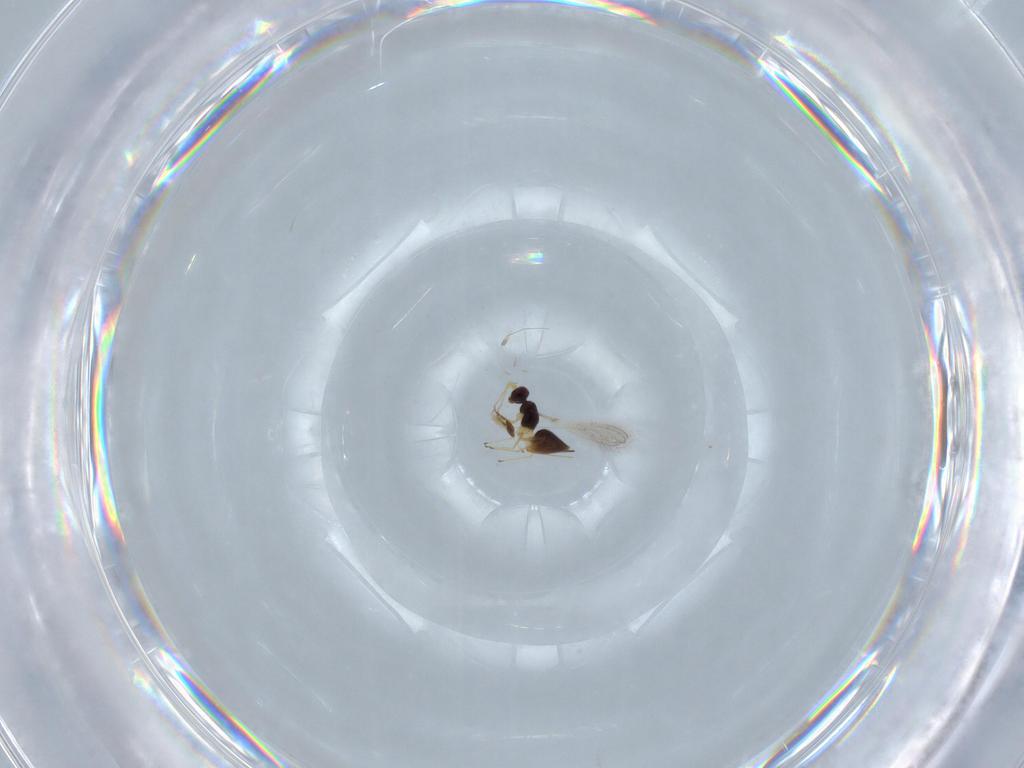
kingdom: Animalia
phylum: Arthropoda
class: Insecta
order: Hymenoptera
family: Mymaridae
